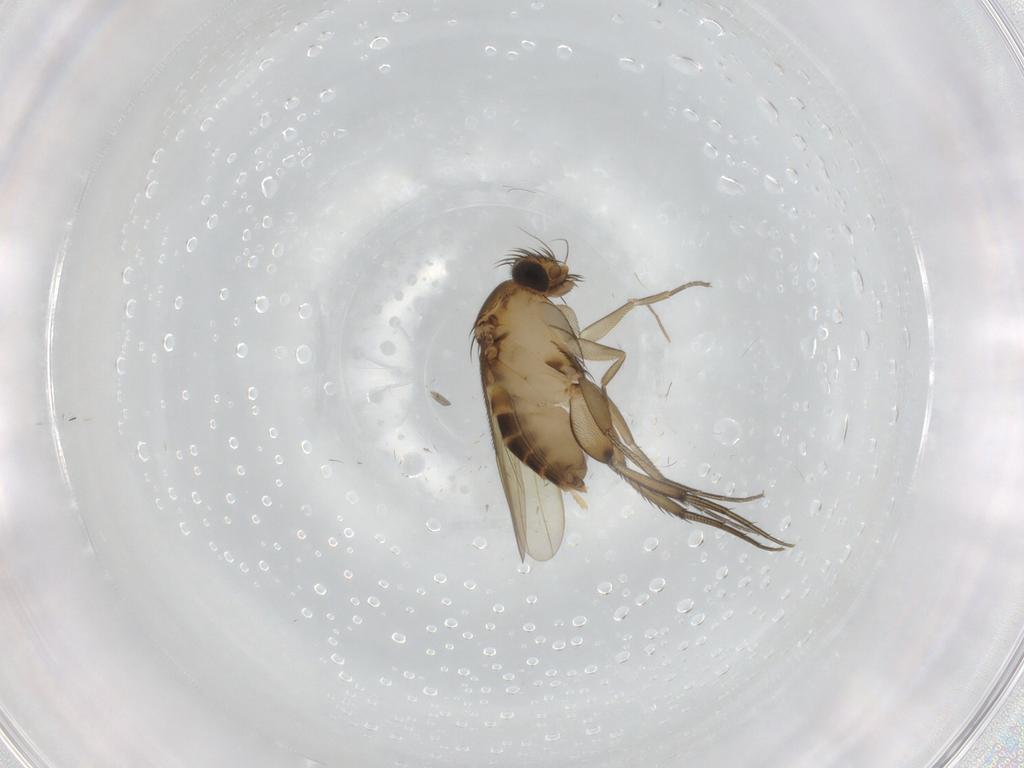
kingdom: Animalia
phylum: Arthropoda
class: Insecta
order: Diptera
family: Phoridae
